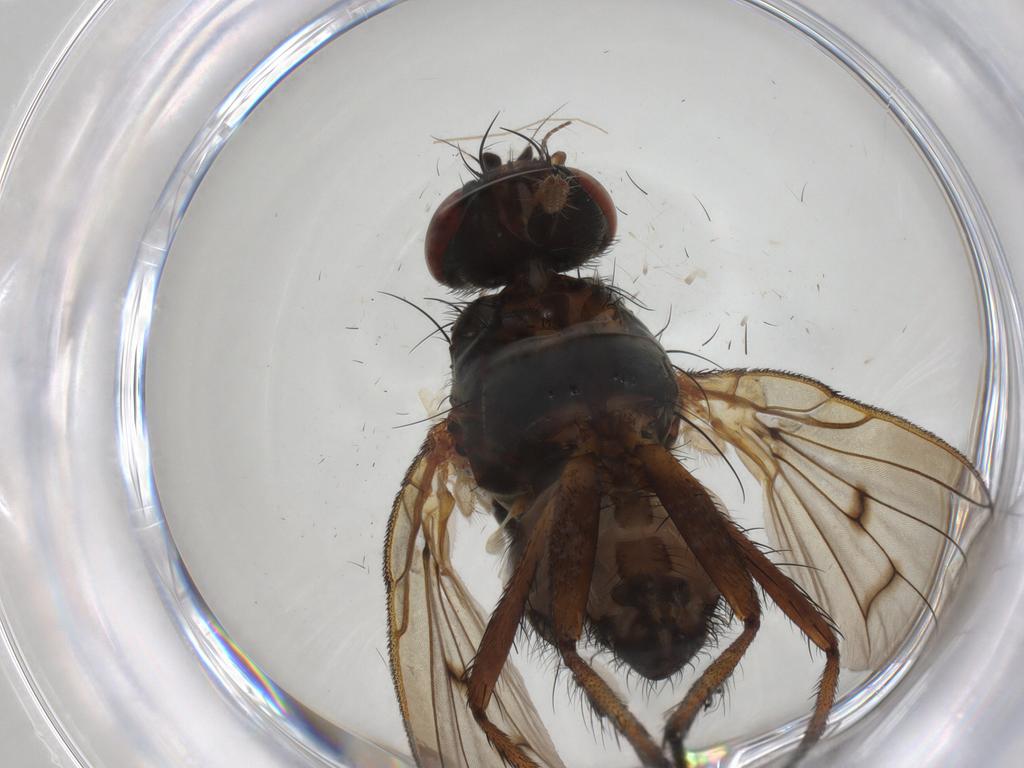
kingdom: Animalia
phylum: Arthropoda
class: Insecta
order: Diptera
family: Anthomyiidae
